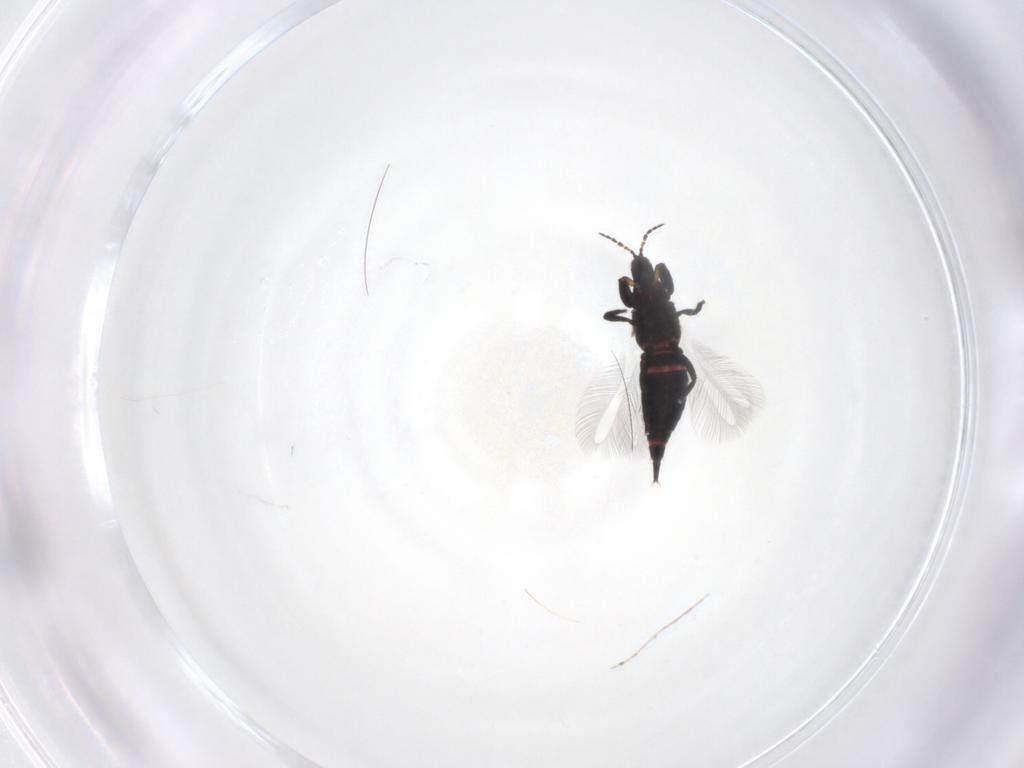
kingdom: Animalia
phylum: Arthropoda
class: Insecta
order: Thysanoptera
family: Phlaeothripidae
